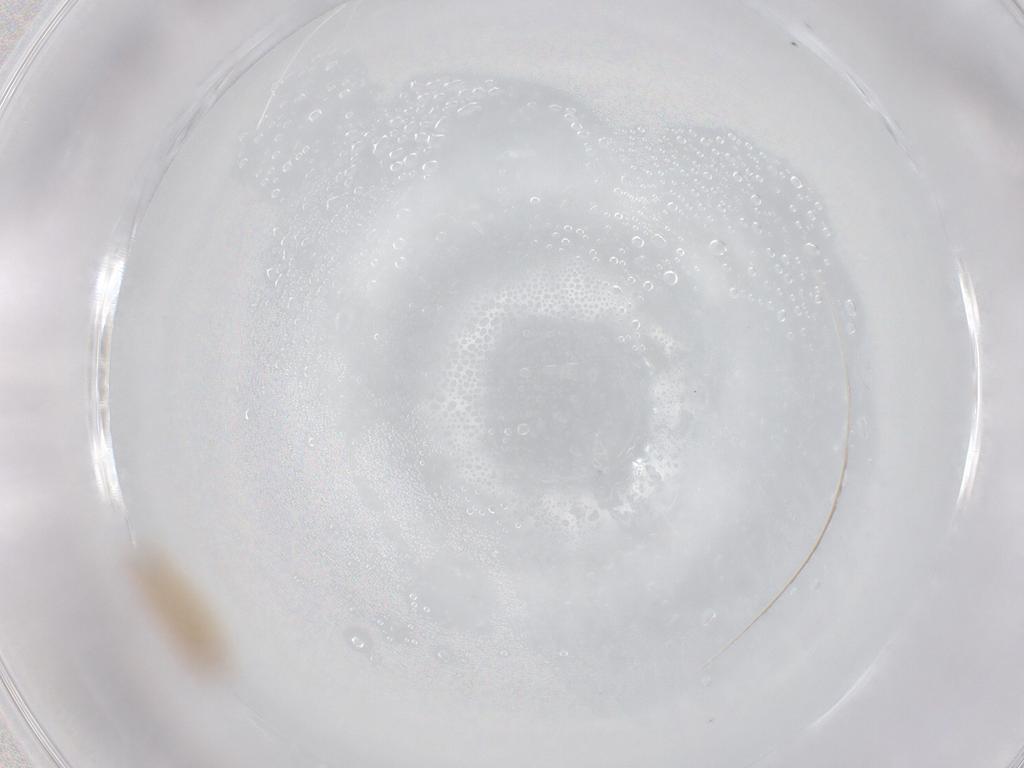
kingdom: Animalia
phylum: Arthropoda
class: Collembola
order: Entomobryomorpha
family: Entomobryidae
